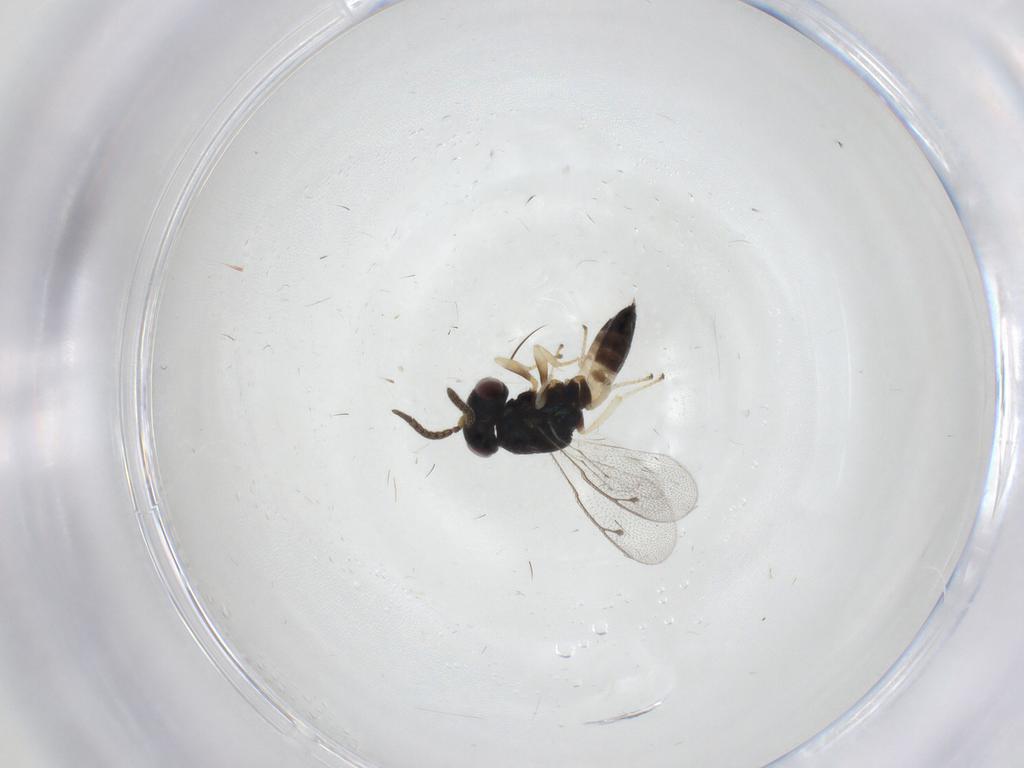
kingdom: Animalia
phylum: Arthropoda
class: Insecta
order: Hymenoptera
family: Pteromalidae
